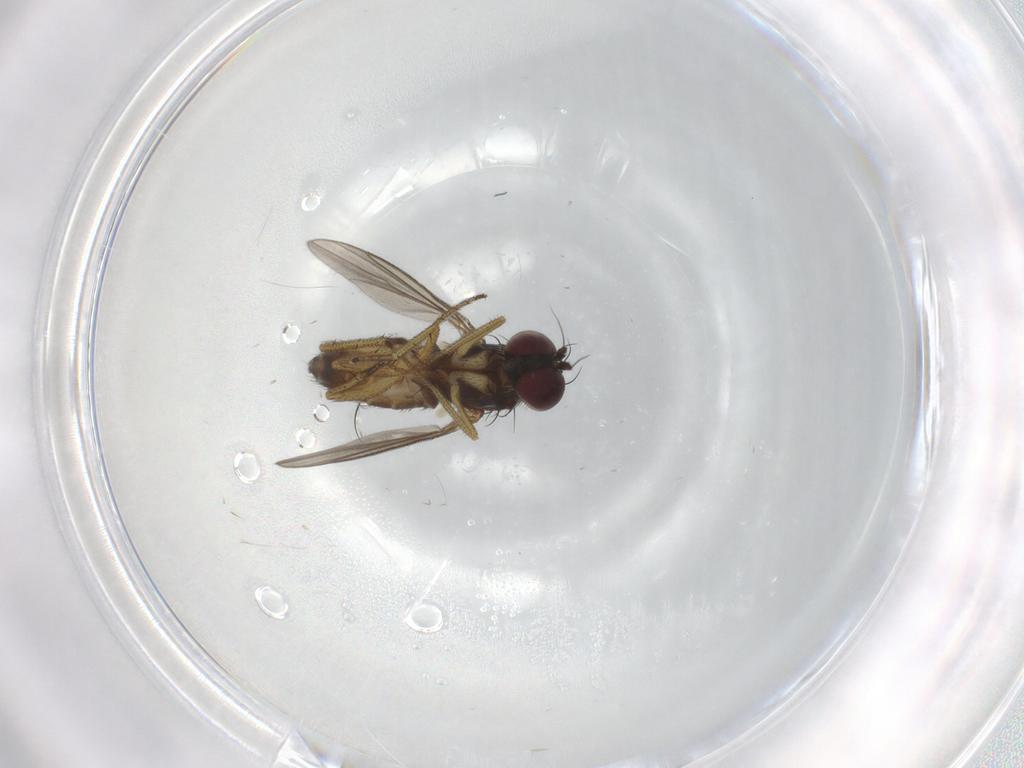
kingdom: Animalia
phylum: Arthropoda
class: Insecta
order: Diptera
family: Dolichopodidae
